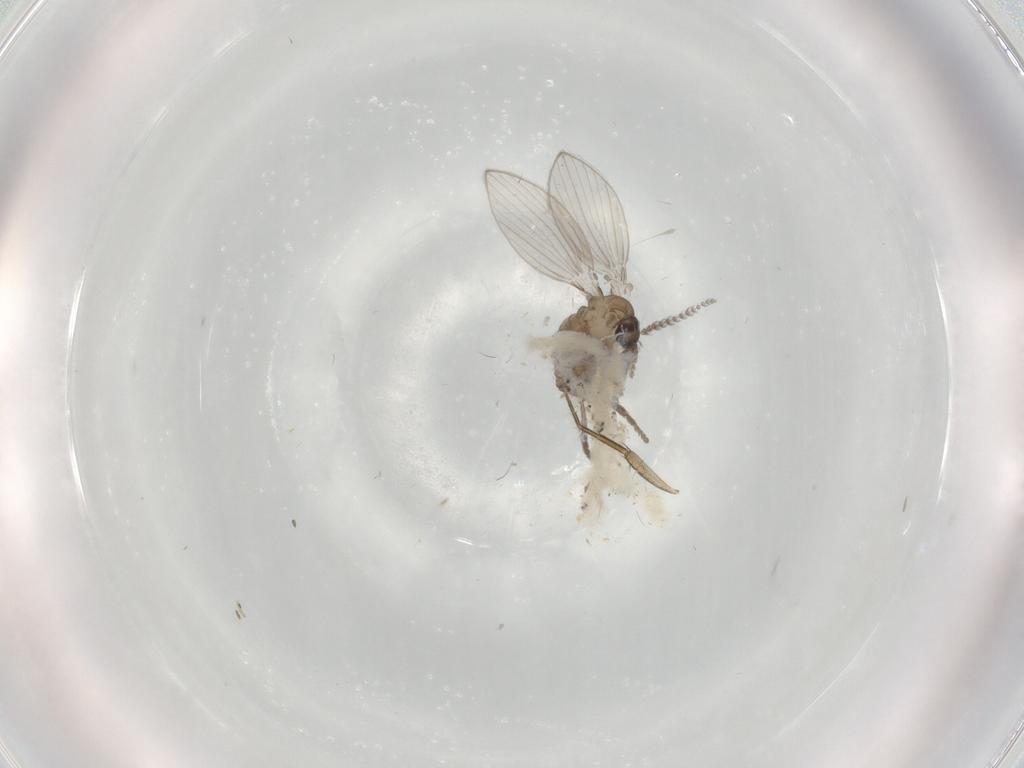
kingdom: Animalia
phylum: Arthropoda
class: Insecta
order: Diptera
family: Psychodidae
